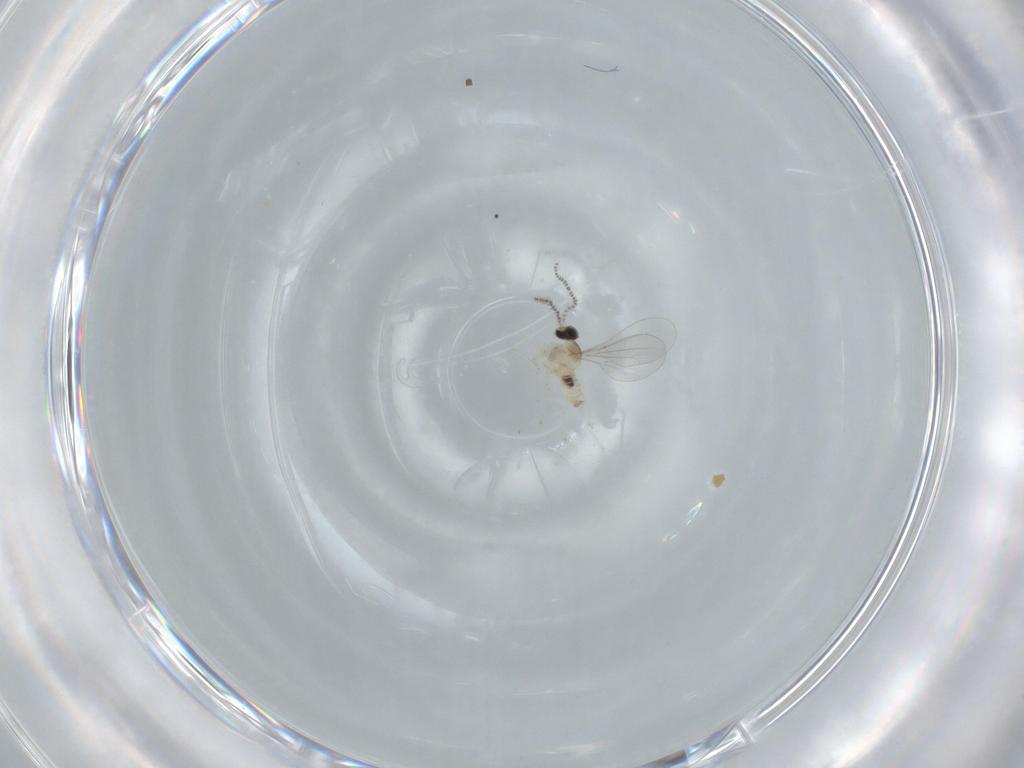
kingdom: Animalia
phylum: Arthropoda
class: Insecta
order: Diptera
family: Cecidomyiidae
